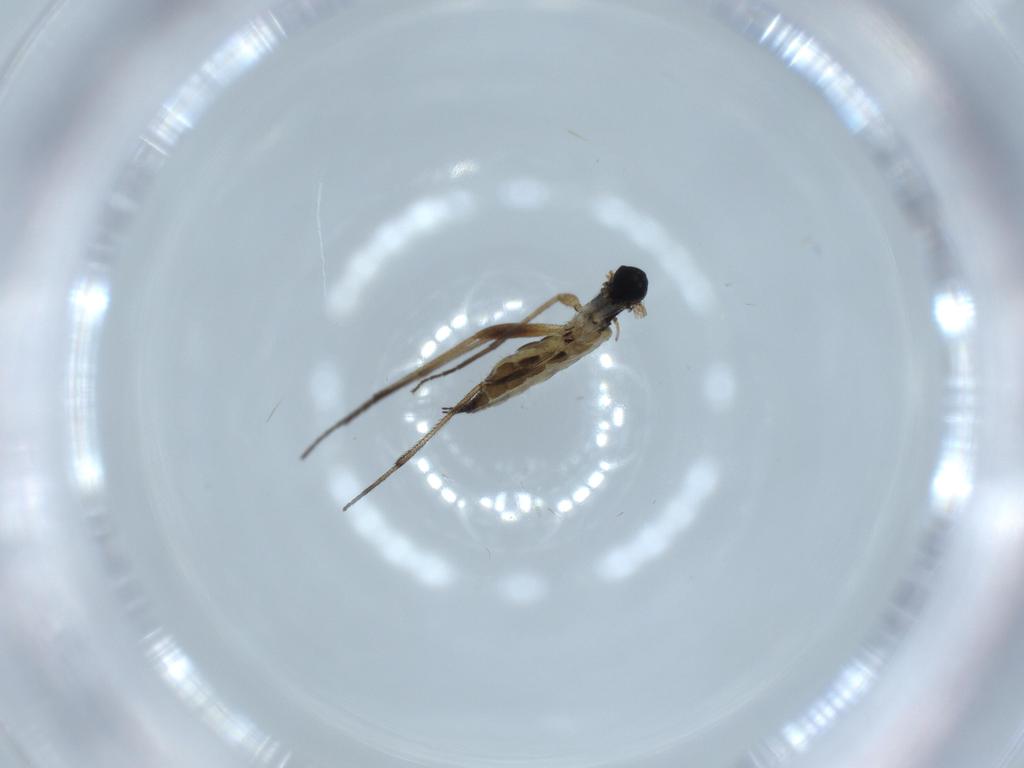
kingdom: Animalia
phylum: Arthropoda
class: Insecta
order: Diptera
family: Sciaridae
